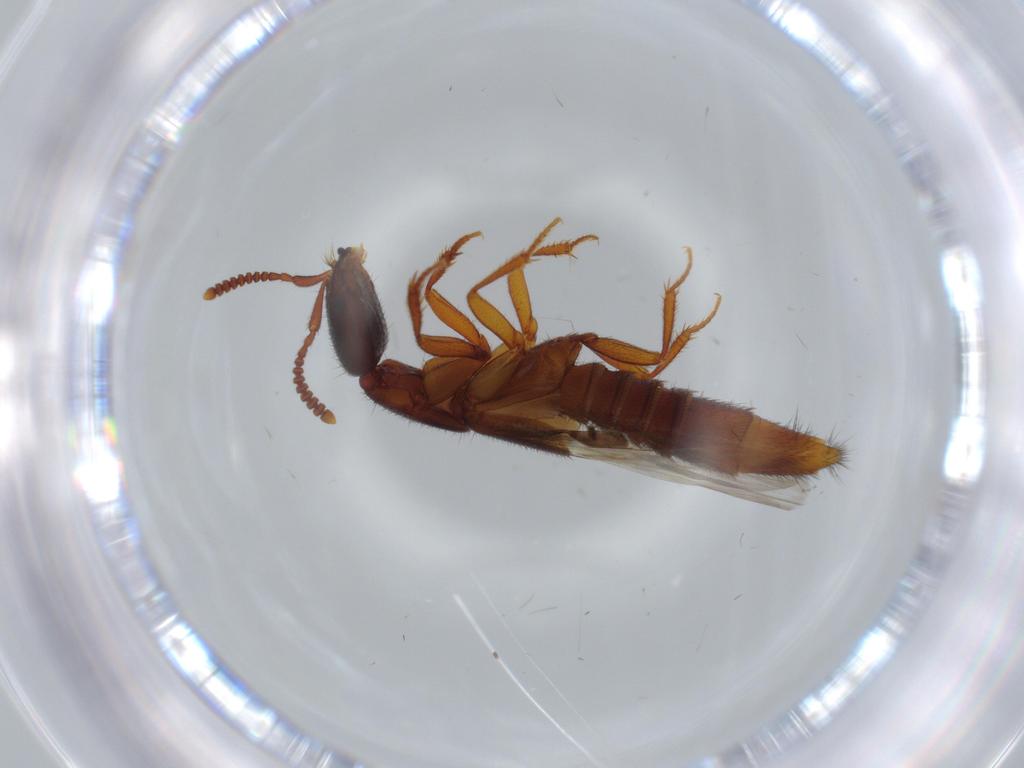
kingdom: Animalia
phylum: Arthropoda
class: Insecta
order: Coleoptera
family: Staphylinidae
